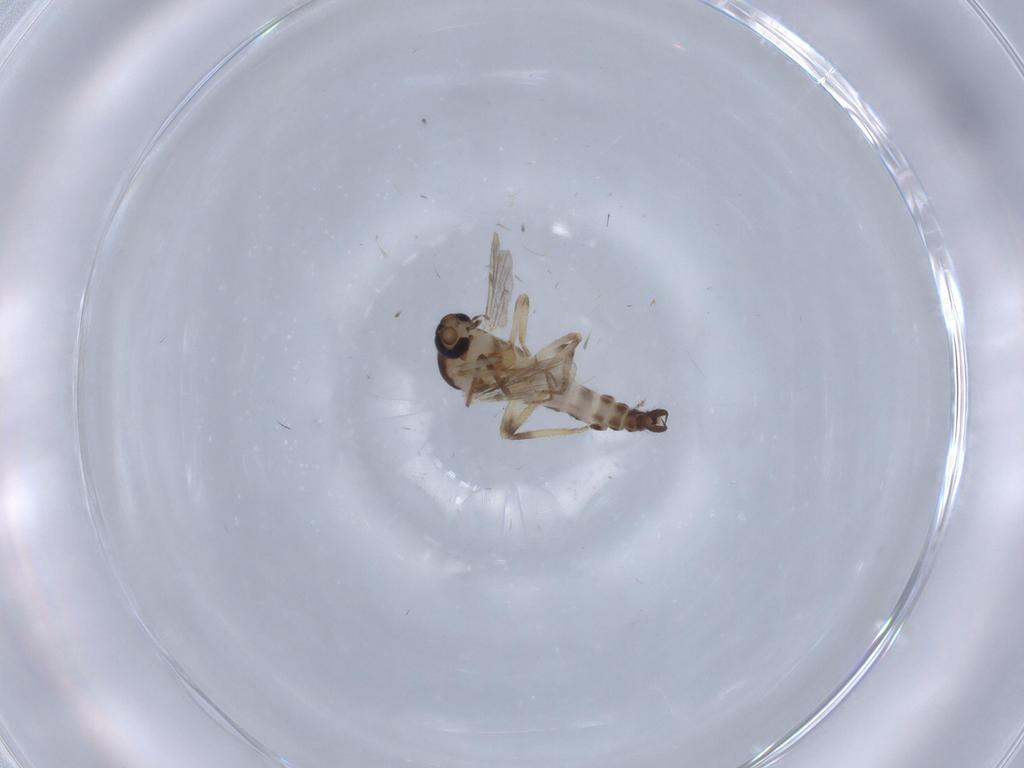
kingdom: Animalia
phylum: Arthropoda
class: Insecta
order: Diptera
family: Ceratopogonidae
